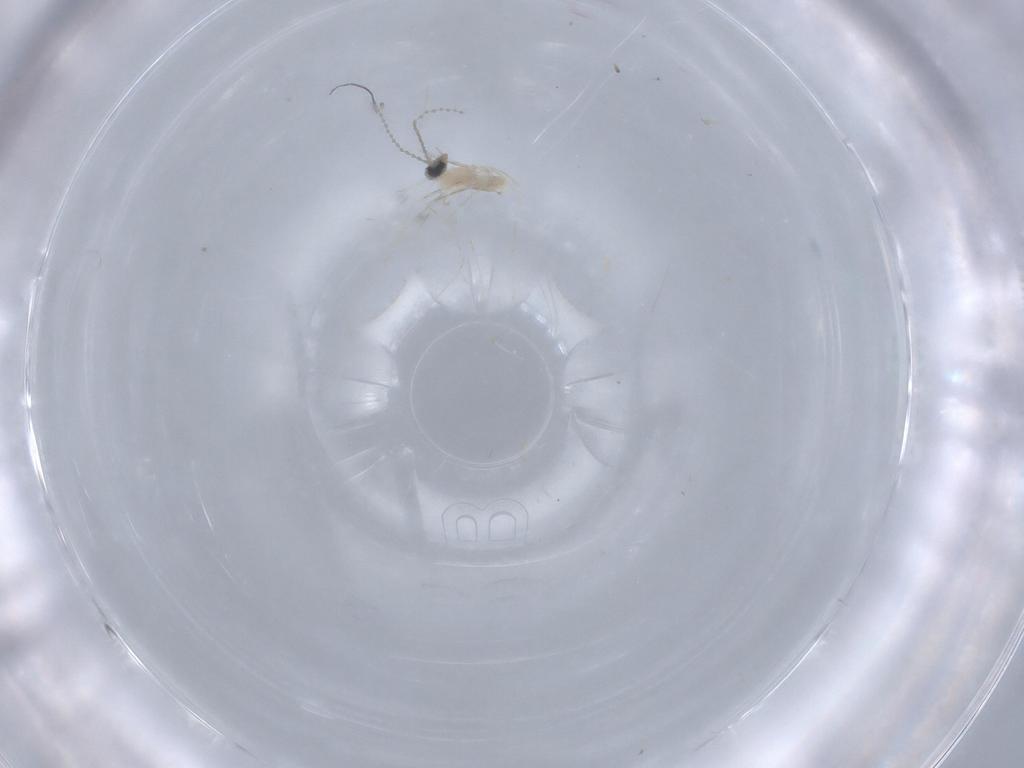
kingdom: Animalia
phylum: Arthropoda
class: Insecta
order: Diptera
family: Cecidomyiidae
